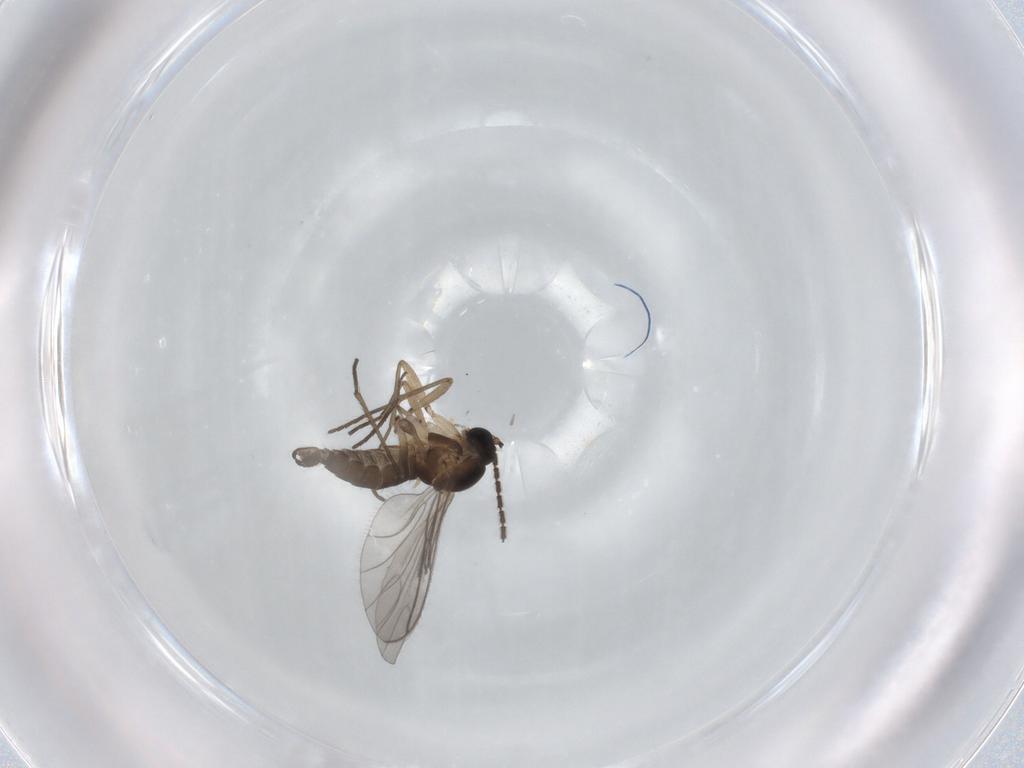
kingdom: Animalia
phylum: Arthropoda
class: Insecta
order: Diptera
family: Sciaridae
